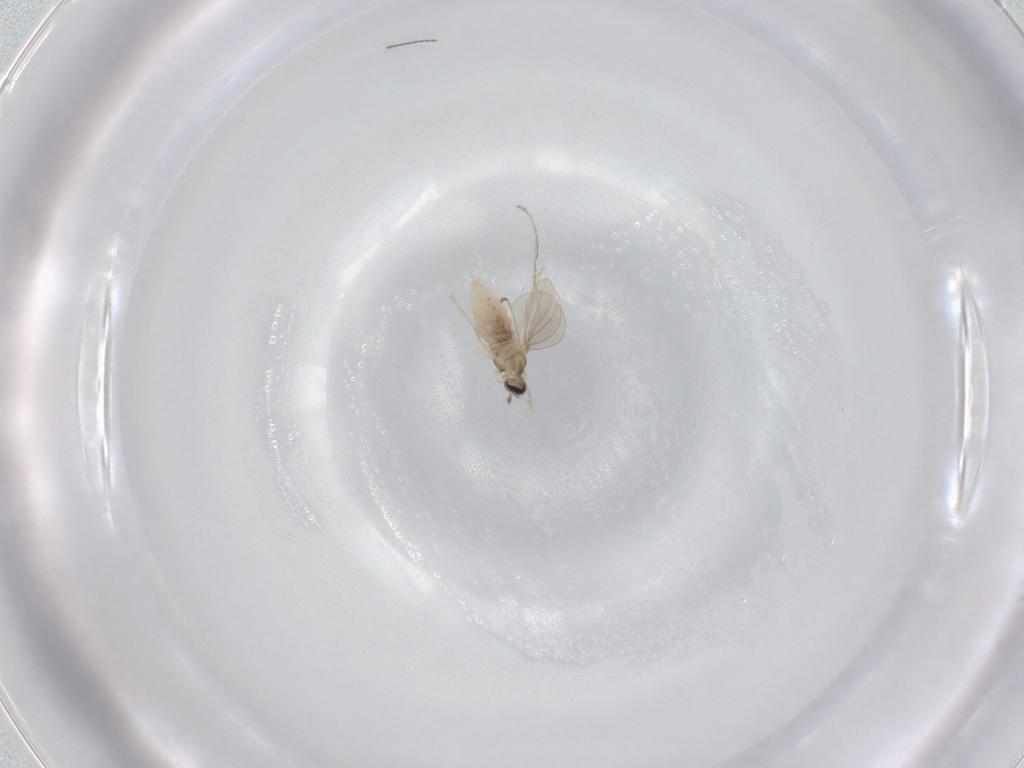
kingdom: Animalia
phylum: Arthropoda
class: Insecta
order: Diptera
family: Cecidomyiidae
